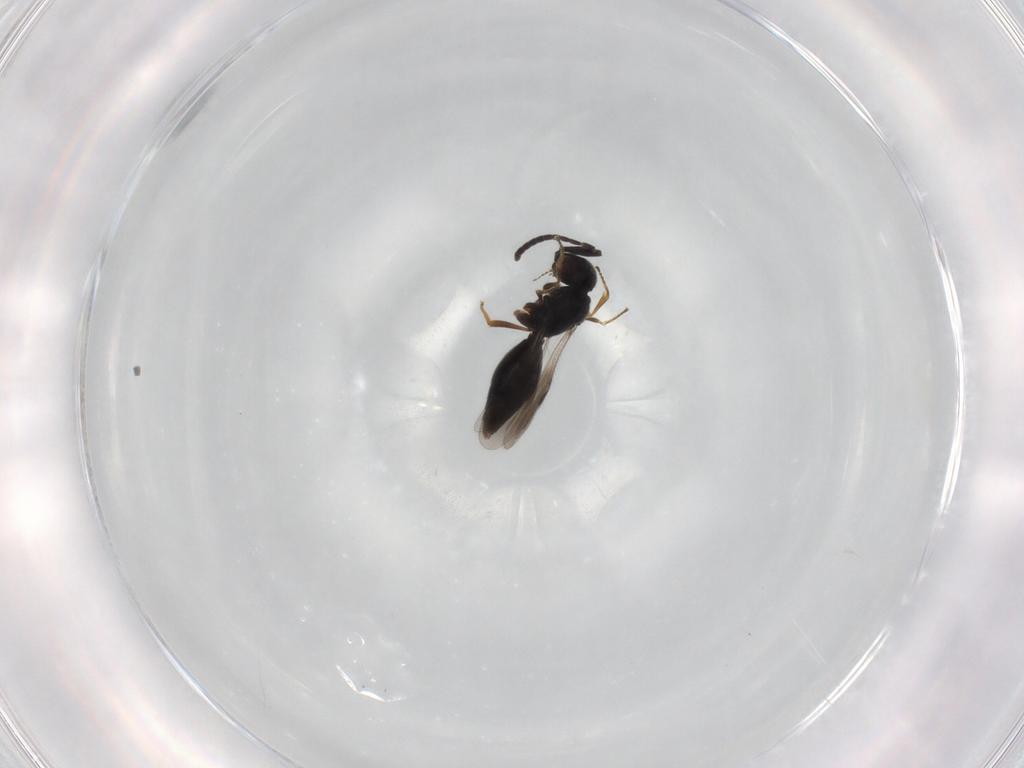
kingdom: Animalia
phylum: Arthropoda
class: Insecta
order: Hymenoptera
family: Megaspilidae
